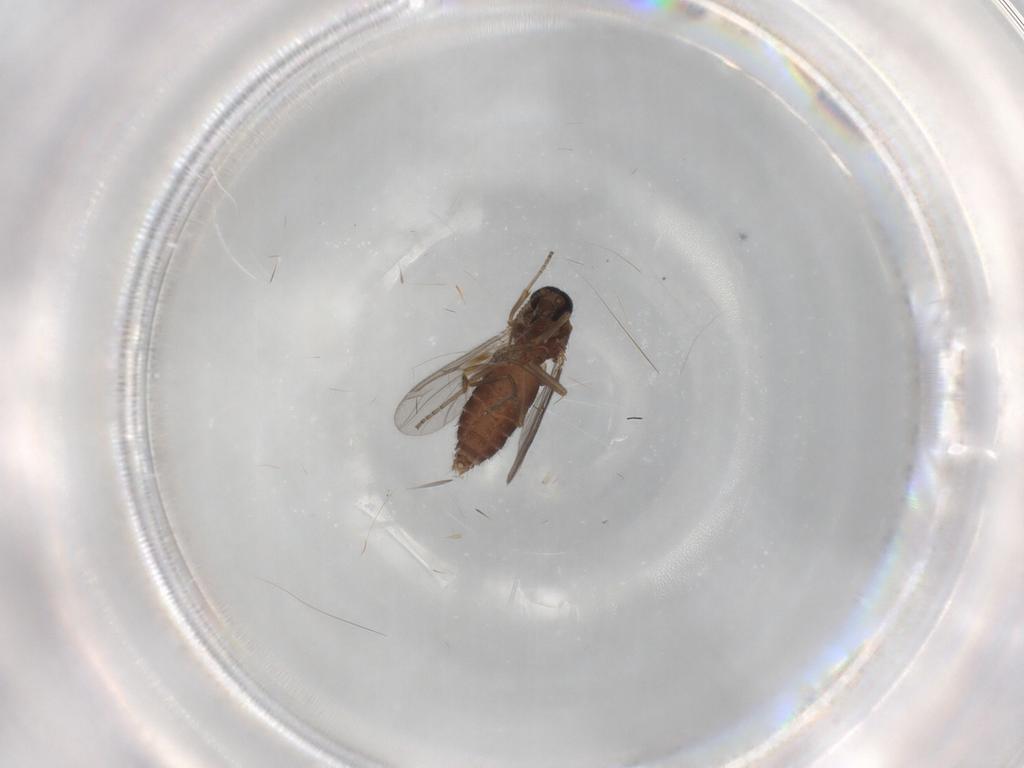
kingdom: Animalia
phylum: Arthropoda
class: Insecta
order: Diptera
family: Ceratopogonidae
